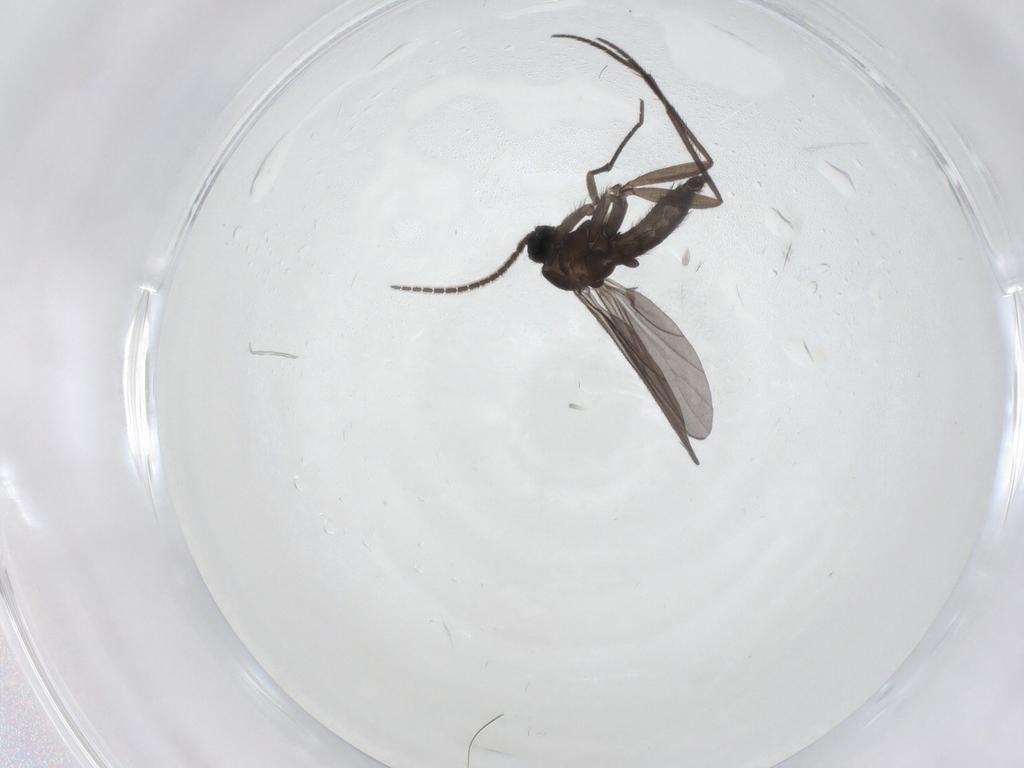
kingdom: Animalia
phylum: Arthropoda
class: Insecta
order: Diptera
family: Sciaridae
